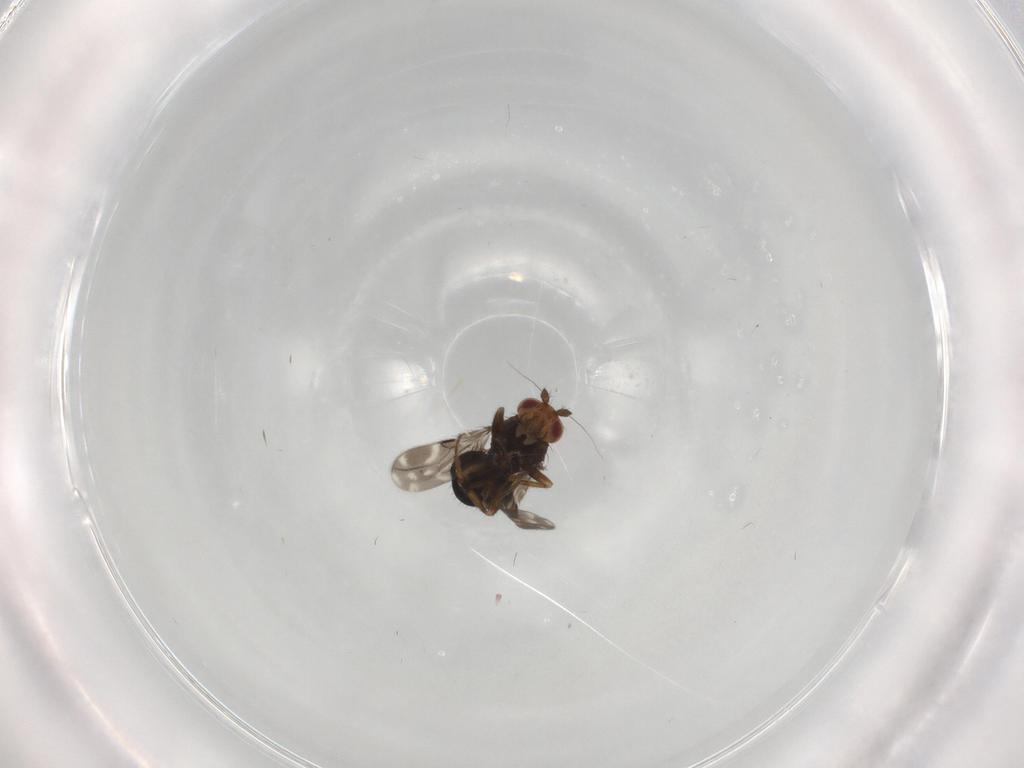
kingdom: Animalia
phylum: Arthropoda
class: Insecta
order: Diptera
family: Sphaeroceridae
